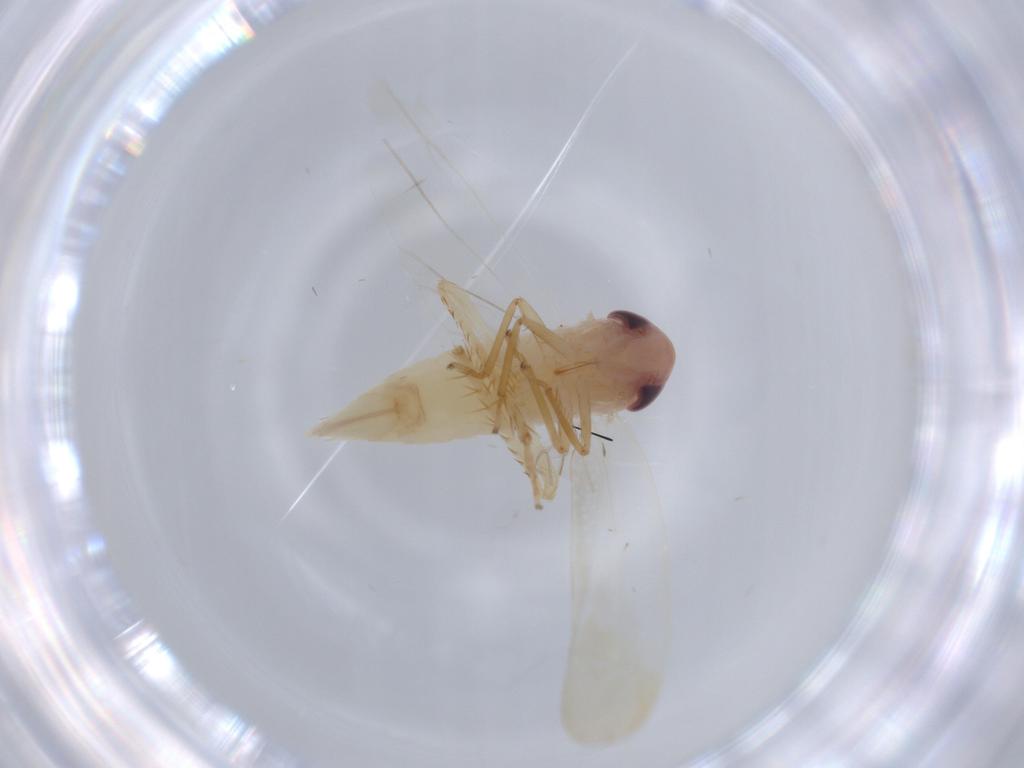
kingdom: Animalia
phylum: Arthropoda
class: Insecta
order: Hemiptera
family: Cicadellidae
